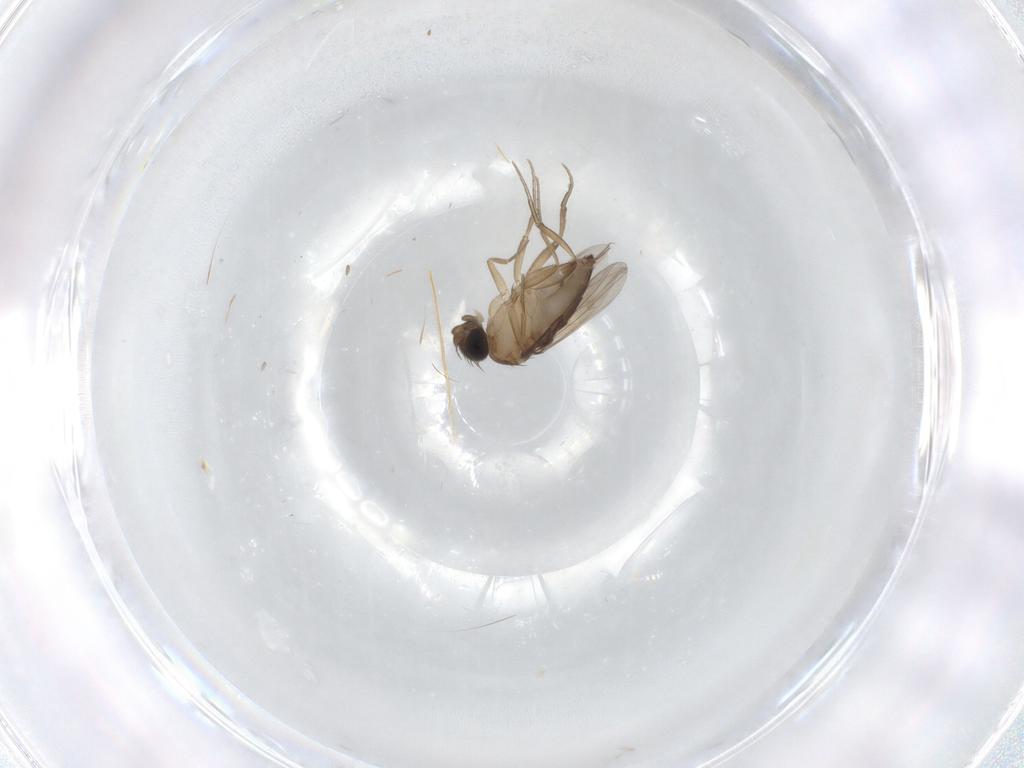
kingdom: Animalia
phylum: Arthropoda
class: Insecta
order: Diptera
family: Phoridae
